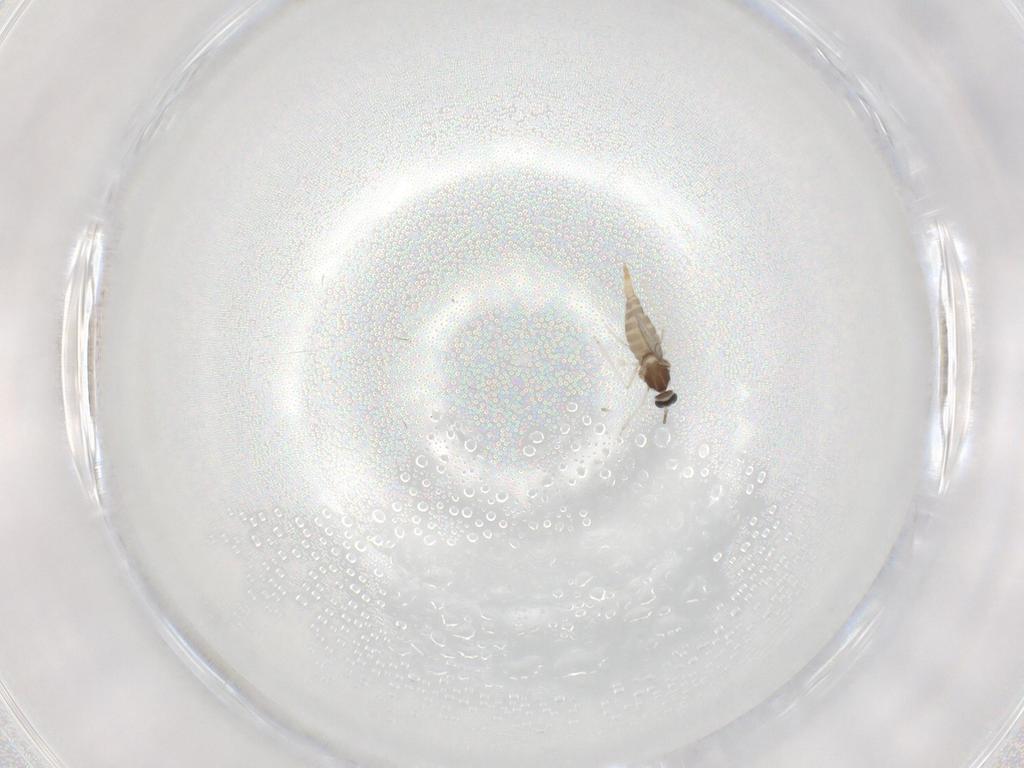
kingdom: Animalia
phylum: Arthropoda
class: Insecta
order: Diptera
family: Cecidomyiidae
